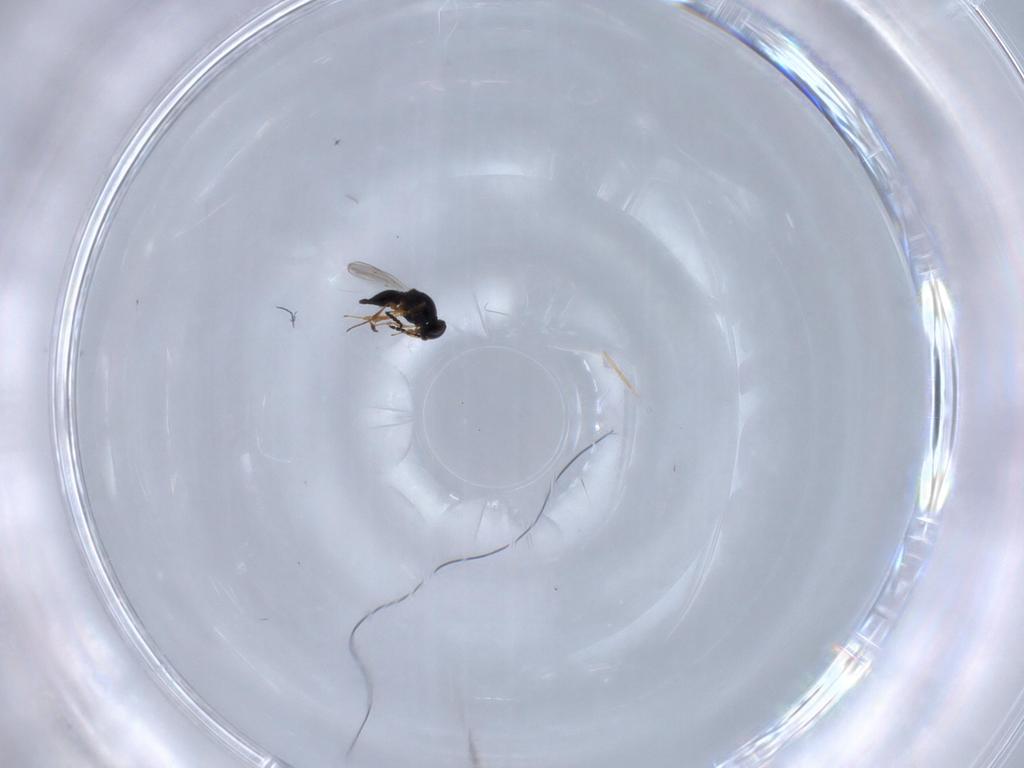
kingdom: Animalia
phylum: Arthropoda
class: Insecta
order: Hymenoptera
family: Platygastridae
